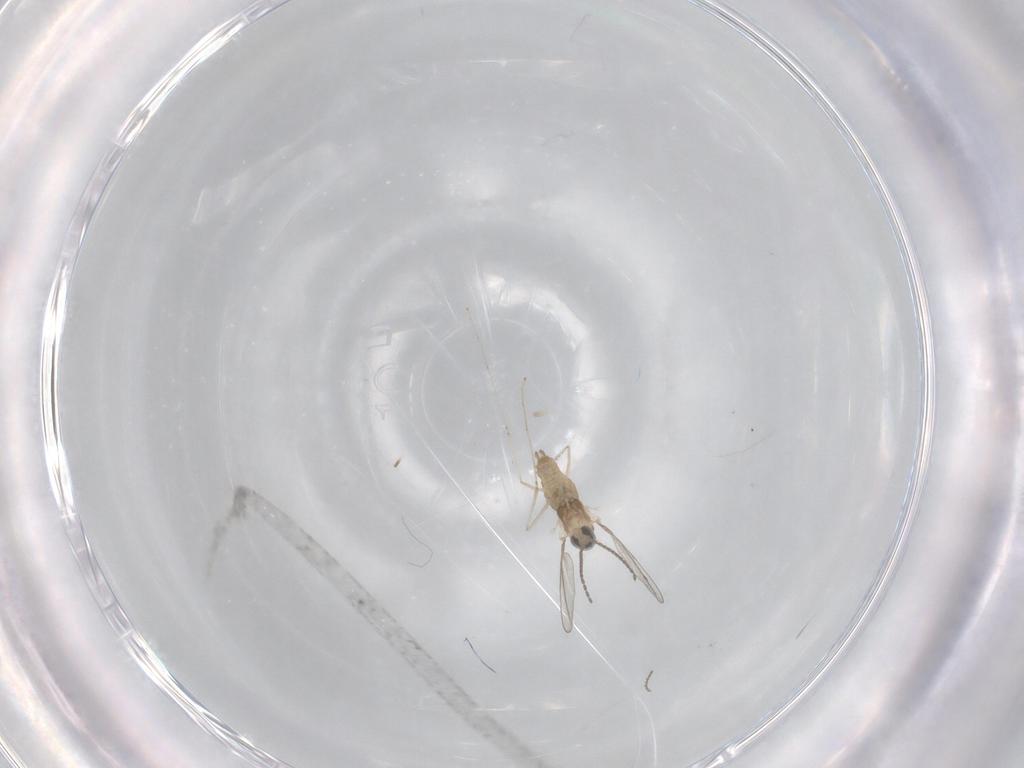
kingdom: Animalia
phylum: Arthropoda
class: Insecta
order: Diptera
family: Cecidomyiidae
